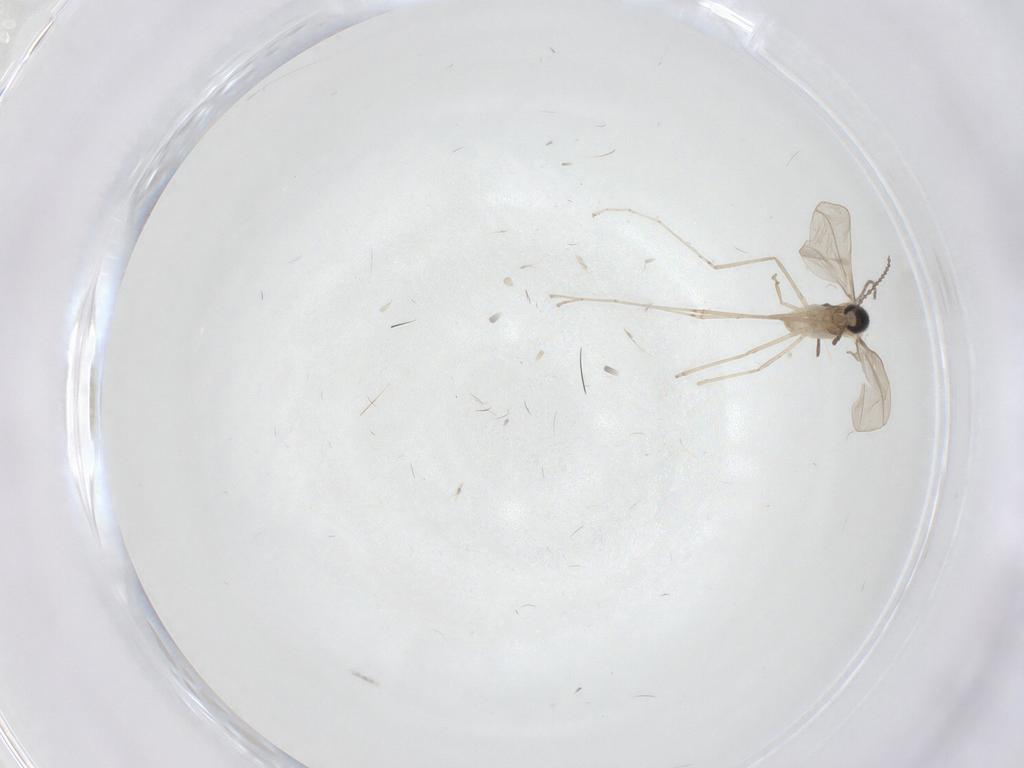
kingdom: Animalia
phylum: Arthropoda
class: Insecta
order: Diptera
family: Cecidomyiidae
